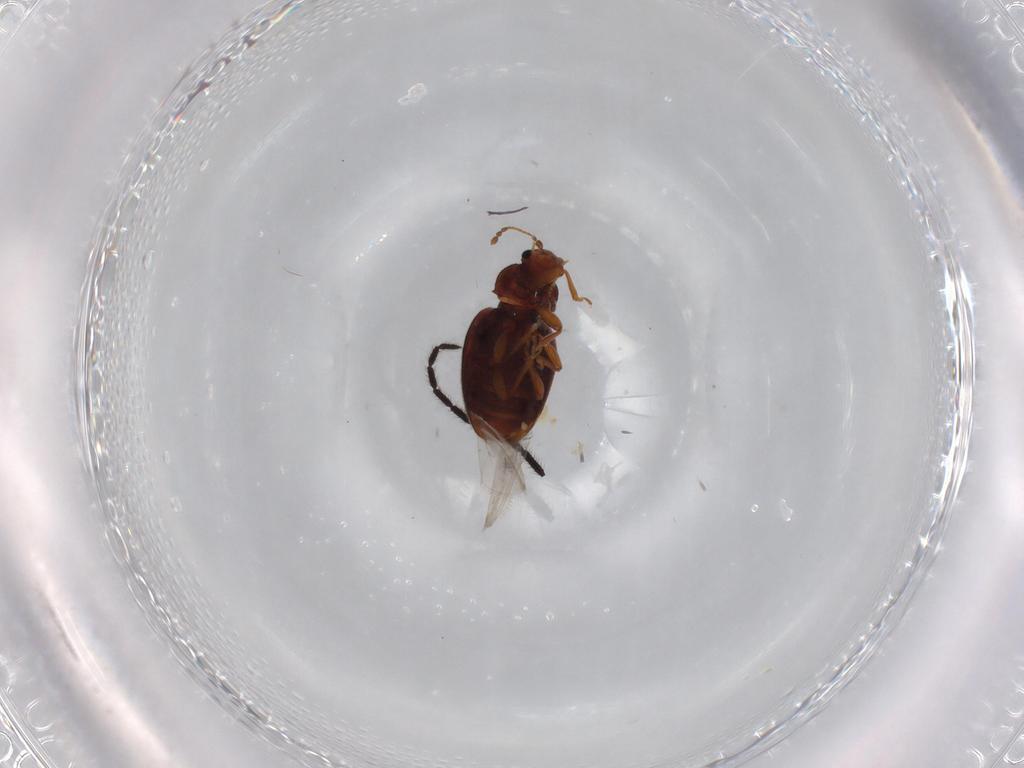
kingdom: Animalia
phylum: Arthropoda
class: Insecta
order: Coleoptera
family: Latridiidae
